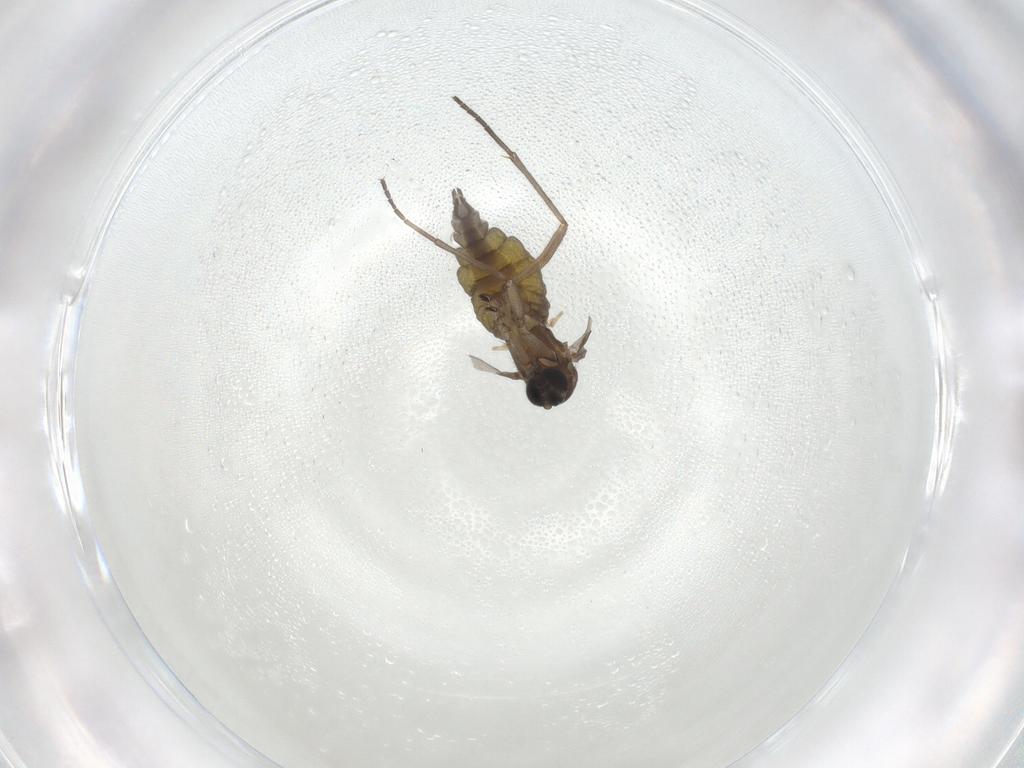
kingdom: Animalia
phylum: Arthropoda
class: Insecta
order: Diptera
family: Sciaridae
